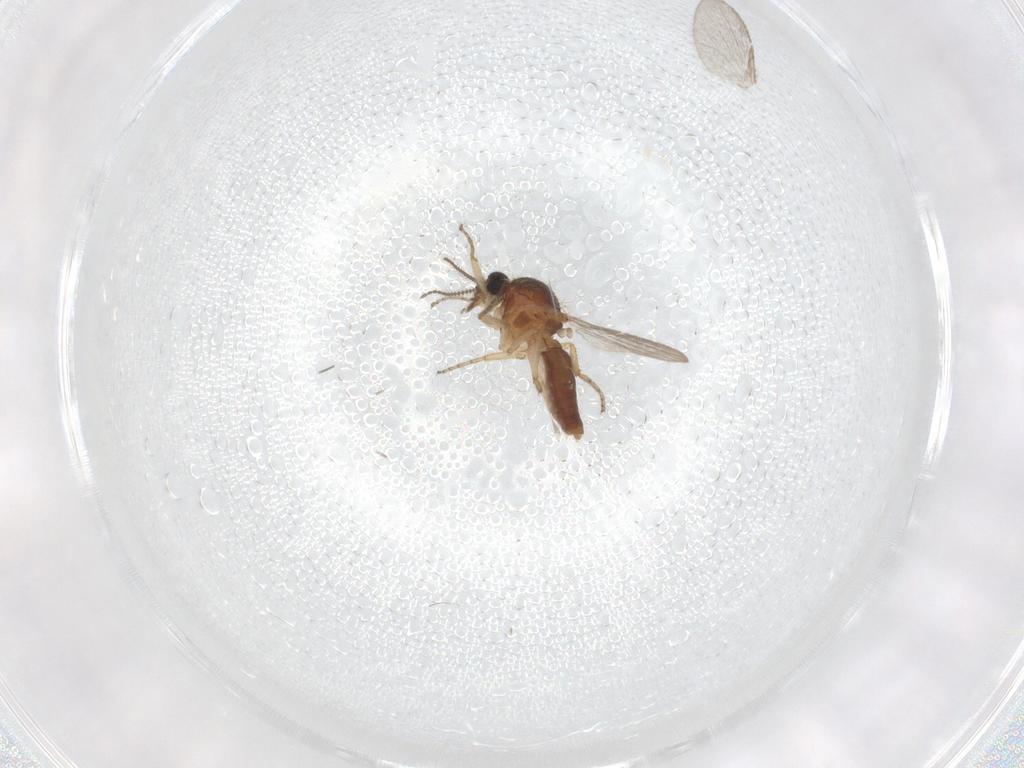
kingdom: Animalia
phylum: Arthropoda
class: Insecta
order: Diptera
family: Ceratopogonidae
